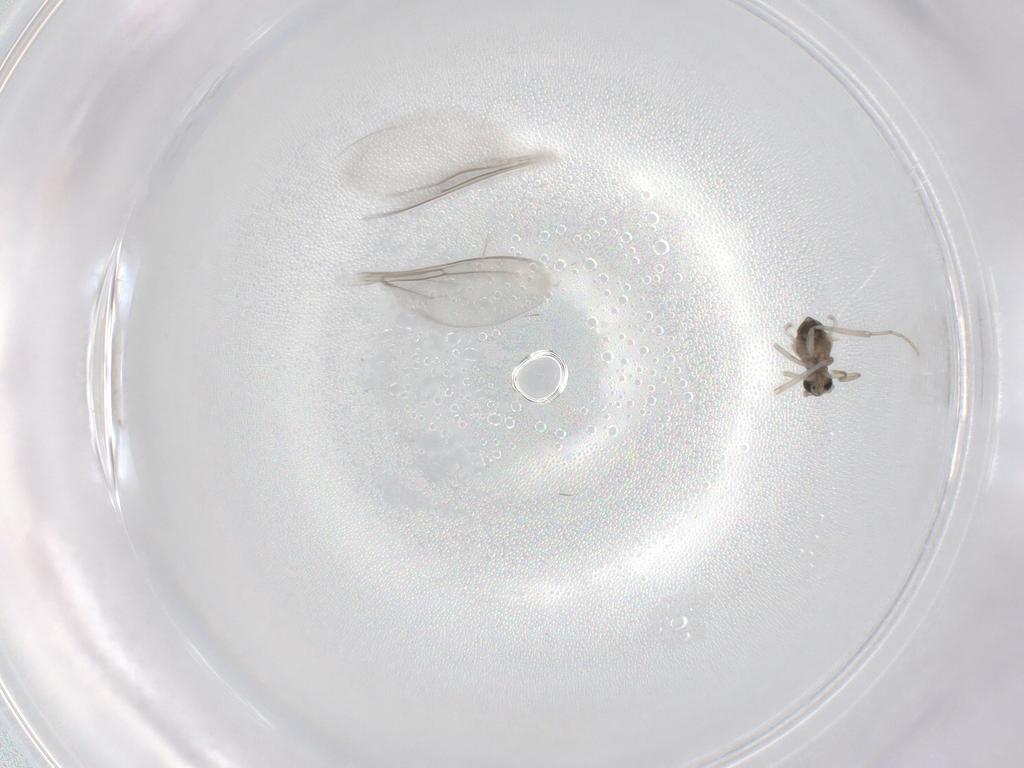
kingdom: Animalia
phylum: Arthropoda
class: Insecta
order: Diptera
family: Cecidomyiidae
